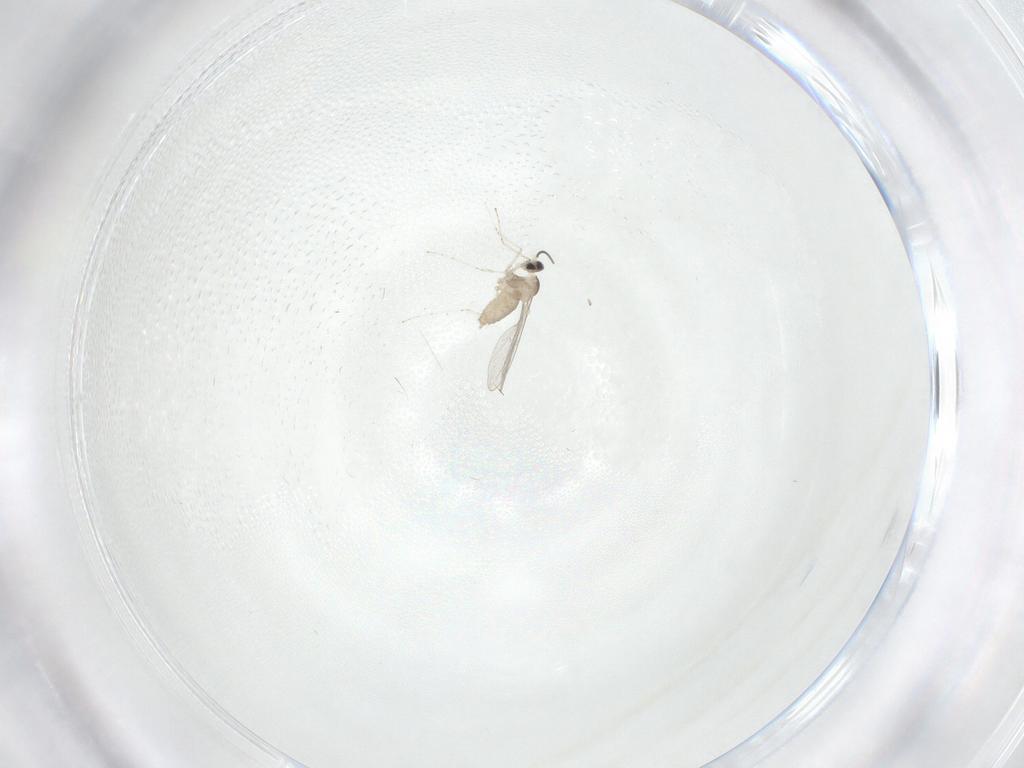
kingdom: Animalia
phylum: Arthropoda
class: Insecta
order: Diptera
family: Cecidomyiidae
